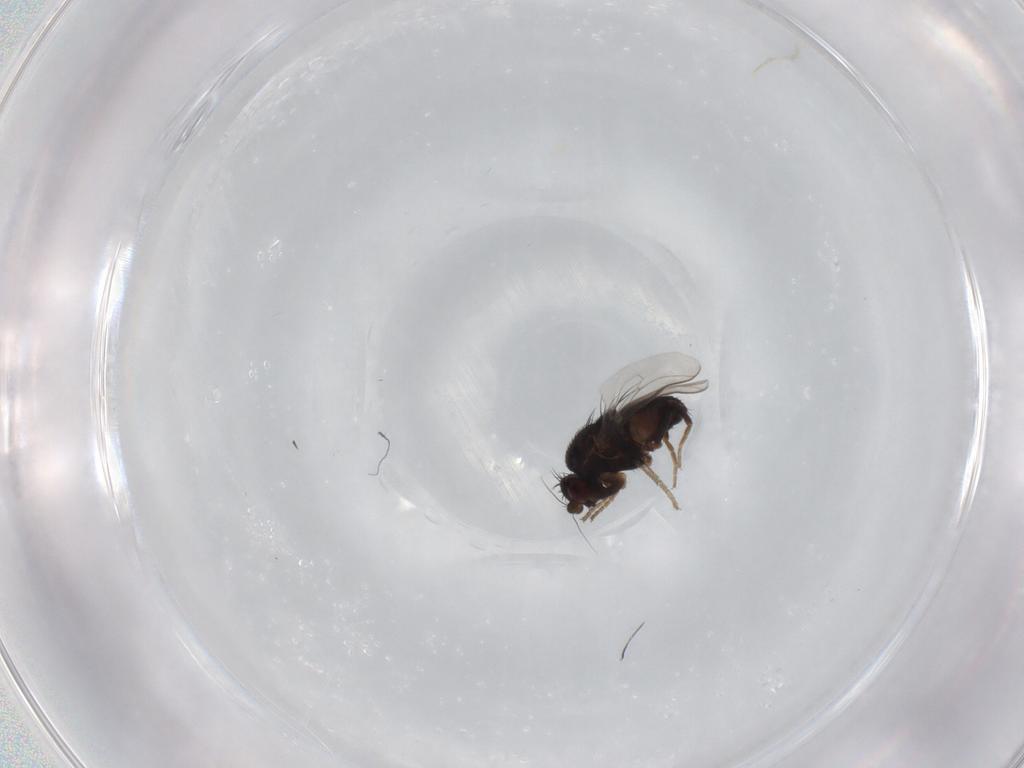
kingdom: Animalia
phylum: Arthropoda
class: Insecta
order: Diptera
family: Sphaeroceridae
